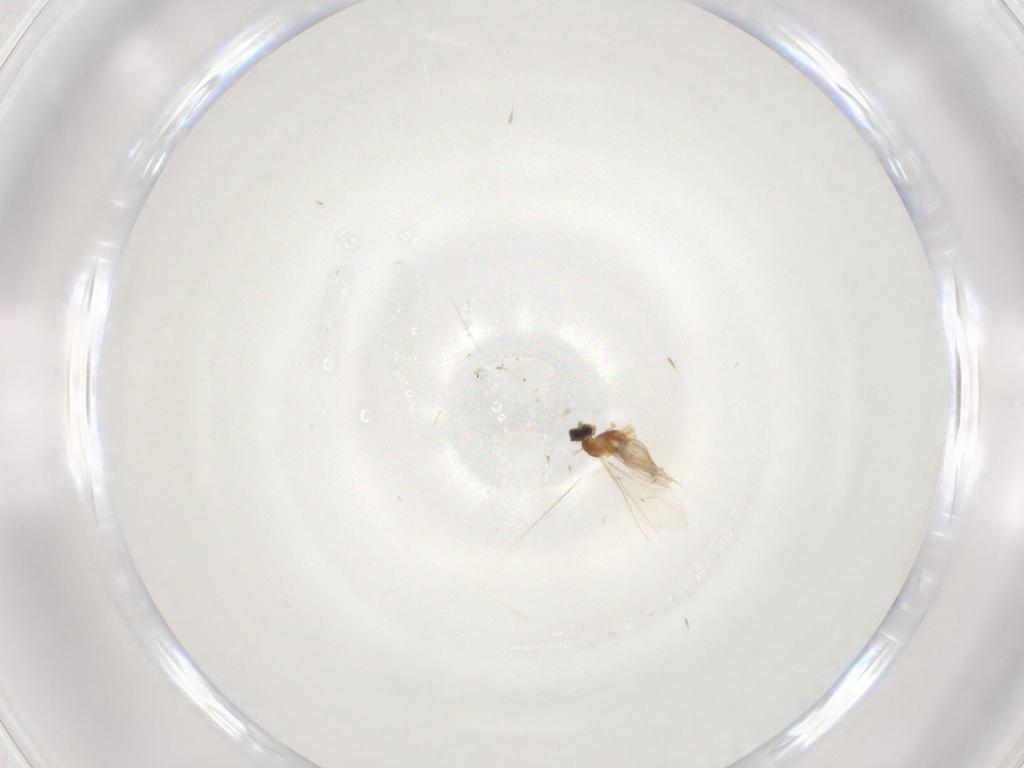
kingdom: Animalia
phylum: Arthropoda
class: Insecta
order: Diptera
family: Cecidomyiidae
